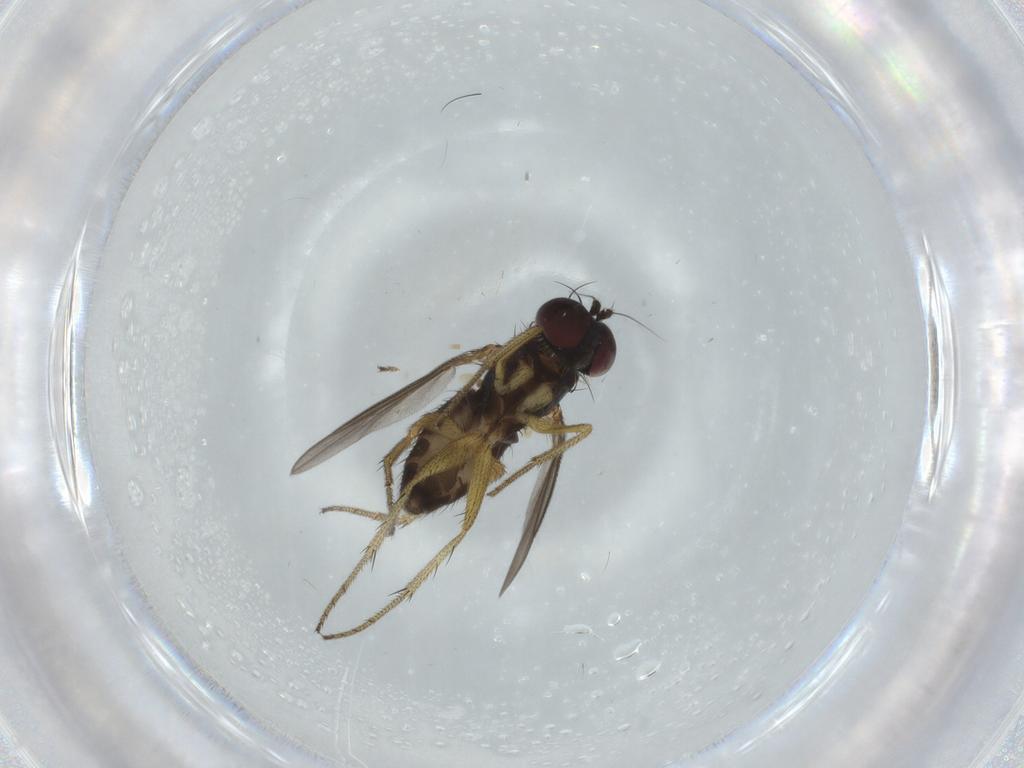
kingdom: Animalia
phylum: Arthropoda
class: Insecta
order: Diptera
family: Dolichopodidae
